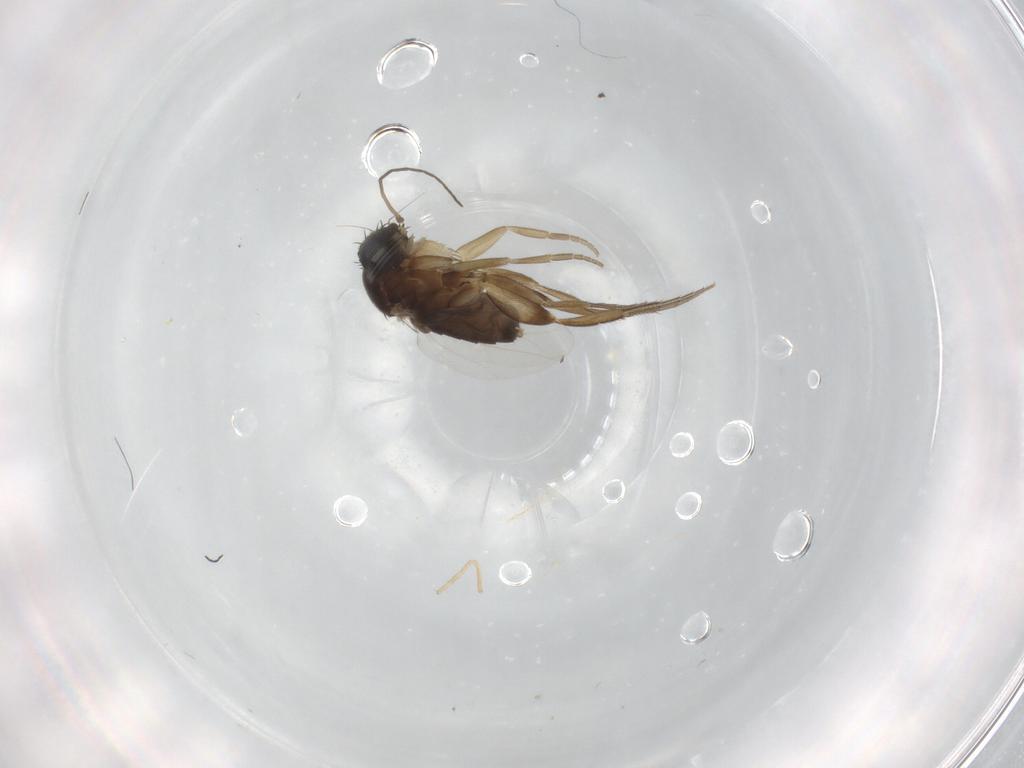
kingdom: Animalia
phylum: Arthropoda
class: Insecta
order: Diptera
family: Phoridae
